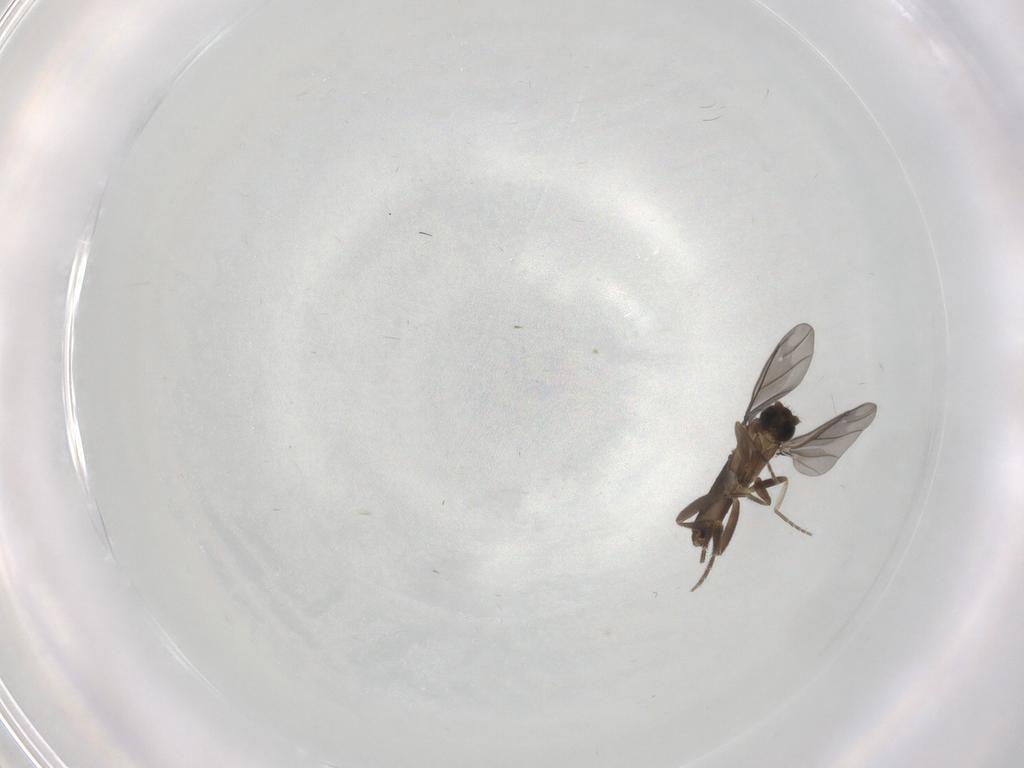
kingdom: Animalia
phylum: Arthropoda
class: Insecta
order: Diptera
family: Phoridae
